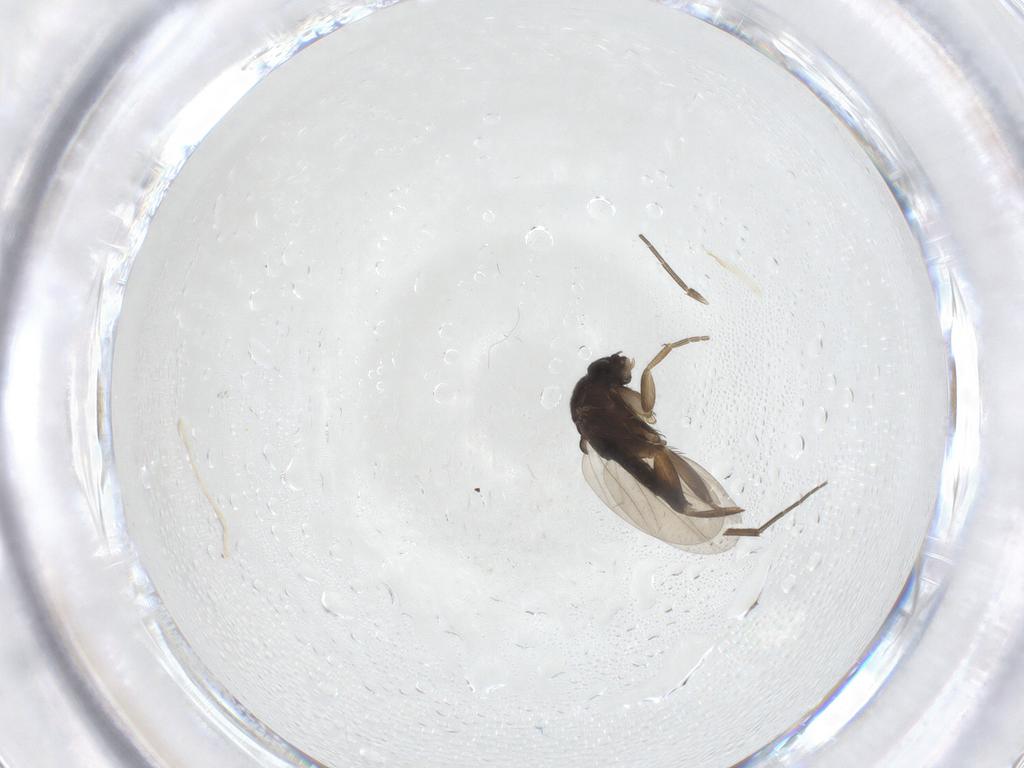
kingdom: Animalia
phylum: Arthropoda
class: Insecta
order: Diptera
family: Phoridae
